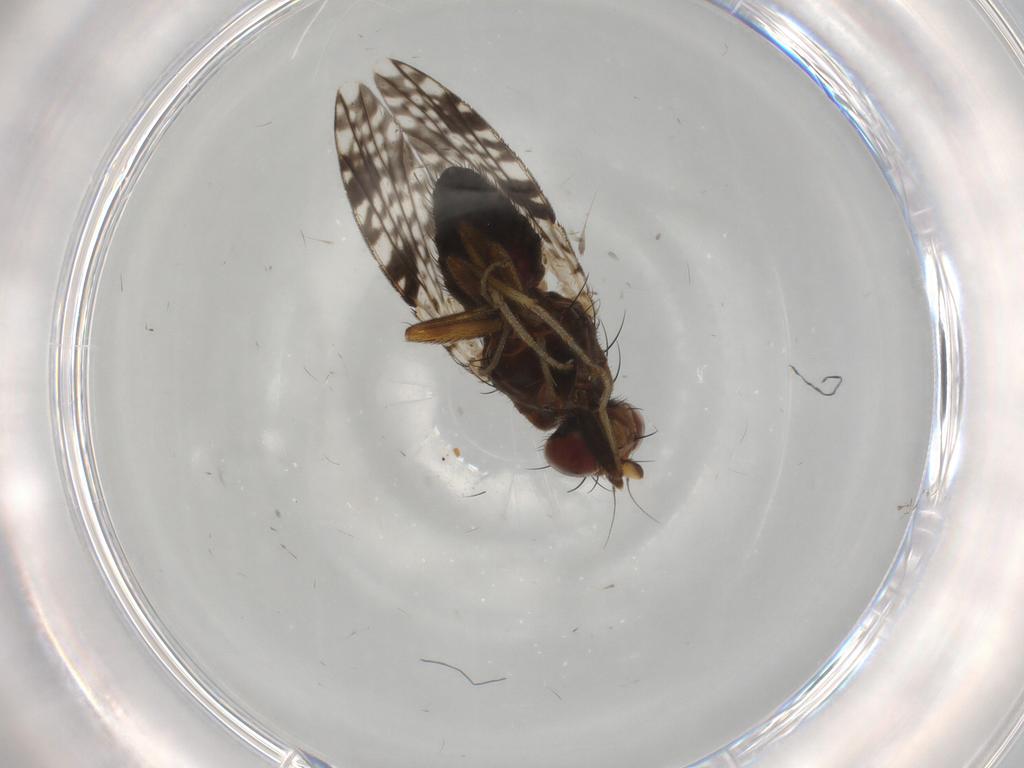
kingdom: Animalia
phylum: Arthropoda
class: Insecta
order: Diptera
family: Tephritidae
